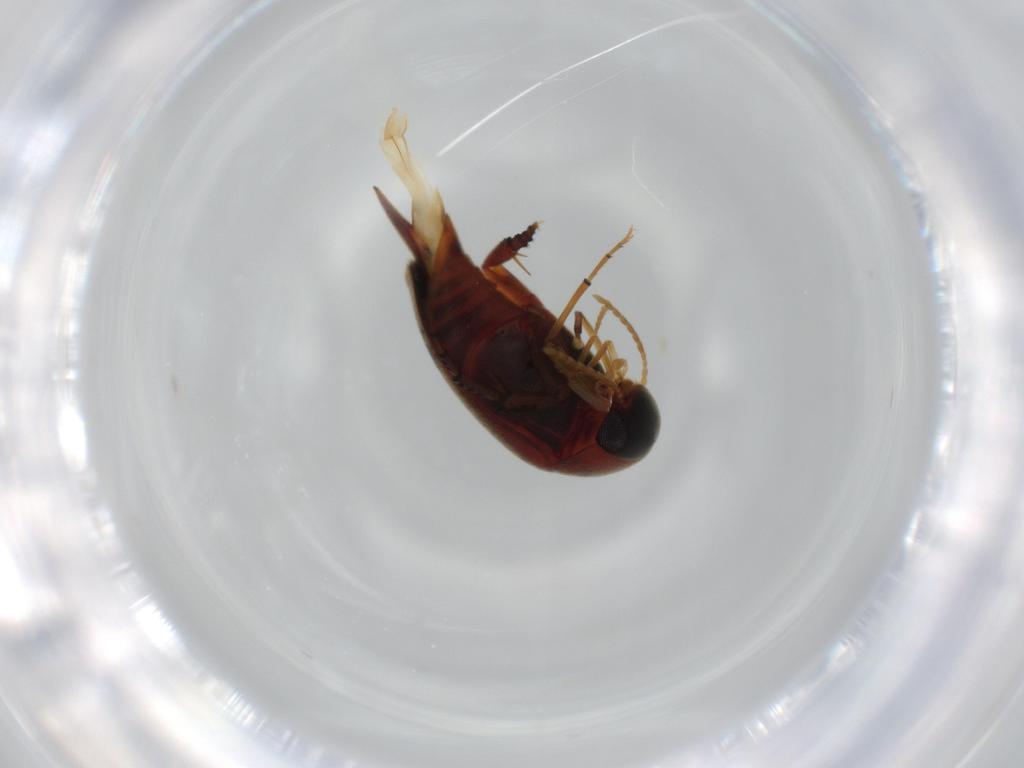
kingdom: Animalia
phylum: Arthropoda
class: Insecta
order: Coleoptera
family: Mordellidae
